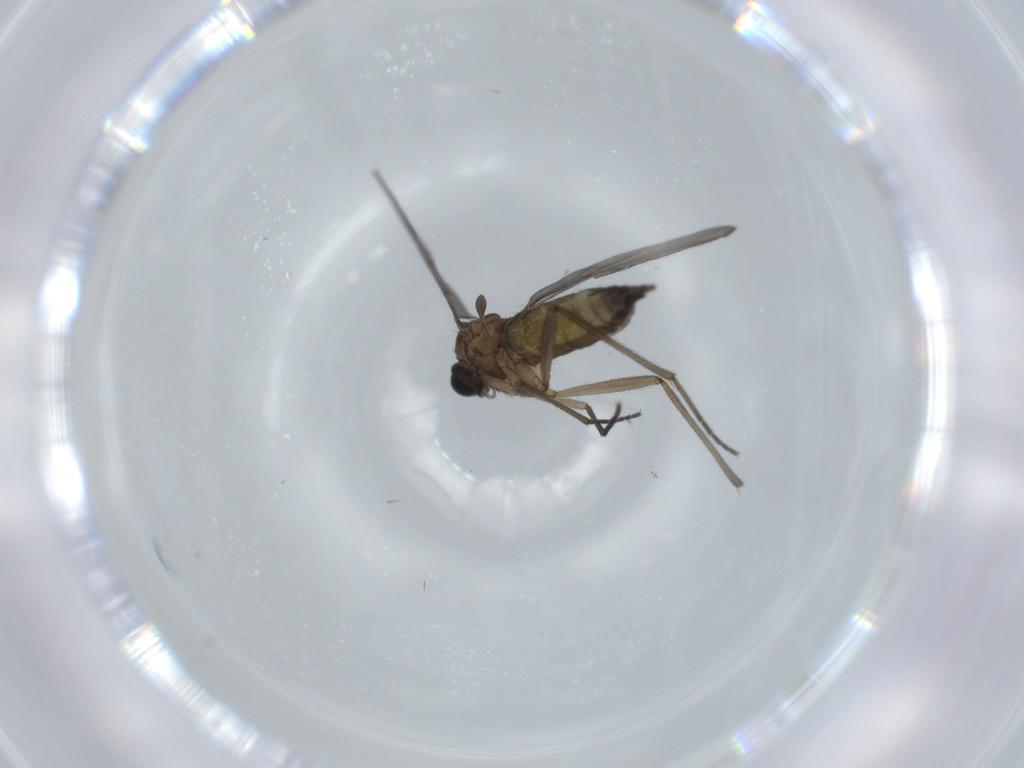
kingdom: Animalia
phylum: Arthropoda
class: Insecta
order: Diptera
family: Sciaridae
